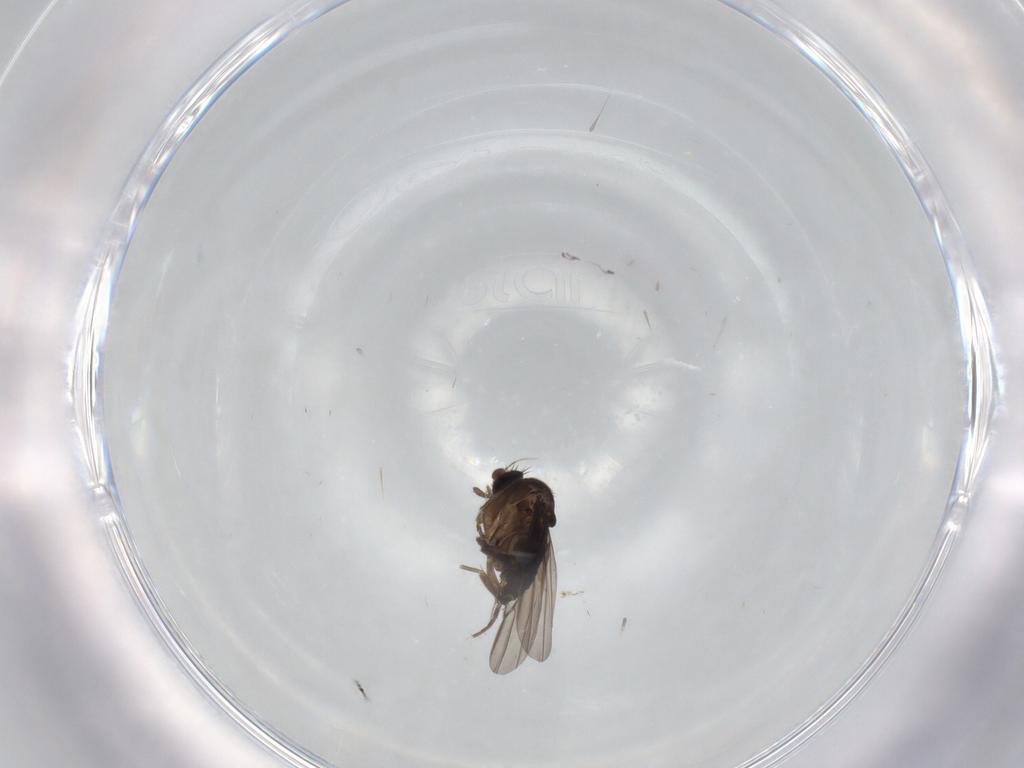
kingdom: Animalia
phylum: Arthropoda
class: Insecta
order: Diptera
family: Phoridae
